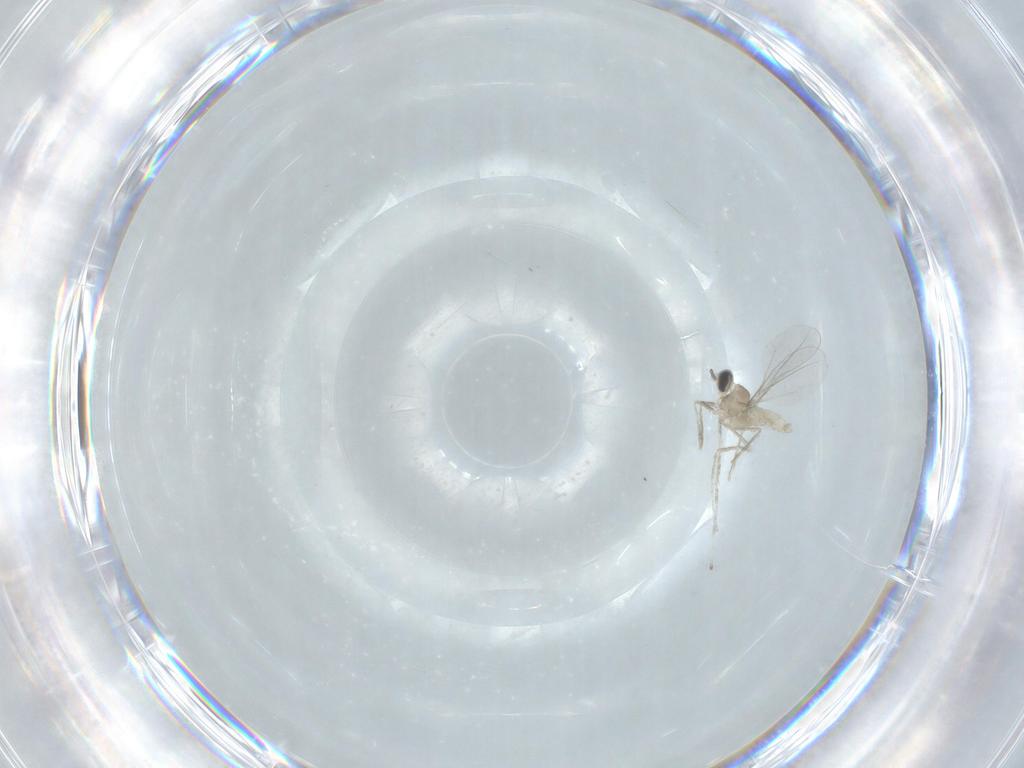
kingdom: Animalia
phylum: Arthropoda
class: Insecta
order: Diptera
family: Cecidomyiidae
